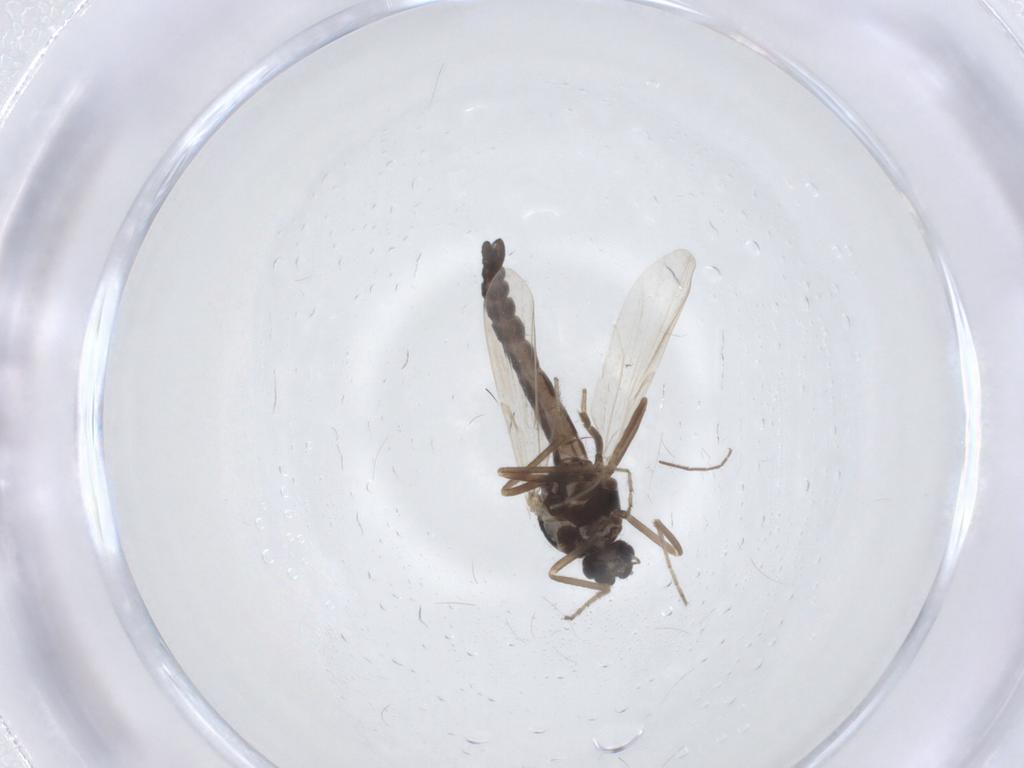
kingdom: Animalia
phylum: Arthropoda
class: Insecta
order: Diptera
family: Ceratopogonidae
